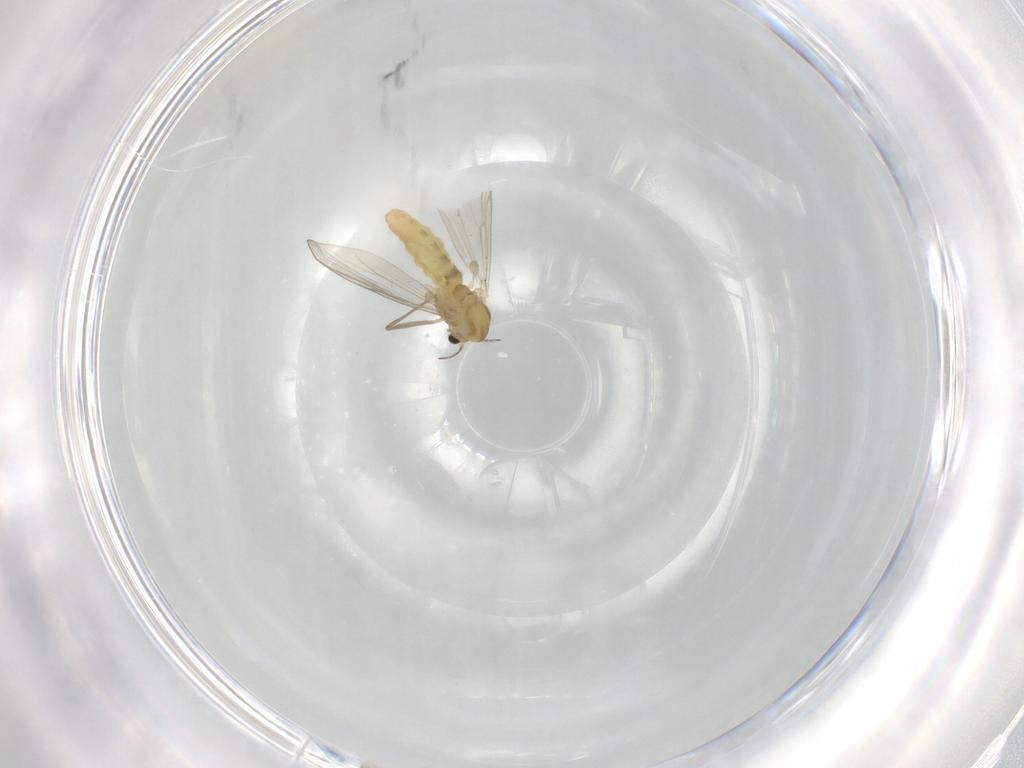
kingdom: Animalia
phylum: Arthropoda
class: Insecta
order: Diptera
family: Chironomidae
